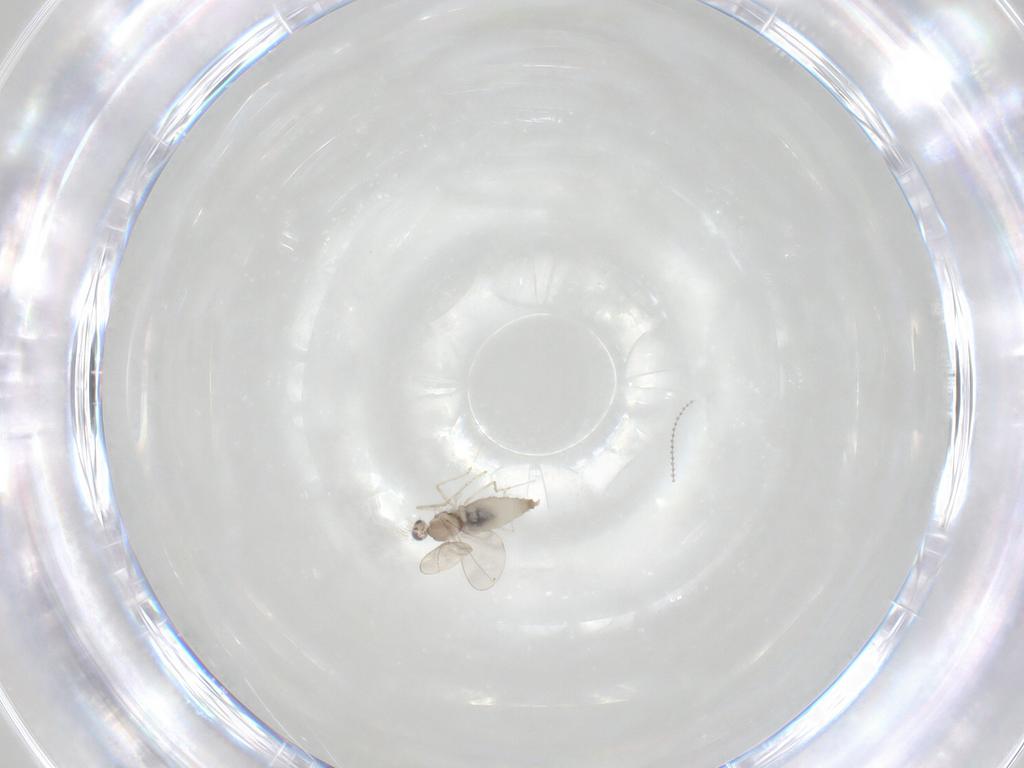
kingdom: Animalia
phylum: Arthropoda
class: Insecta
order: Diptera
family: Cecidomyiidae
